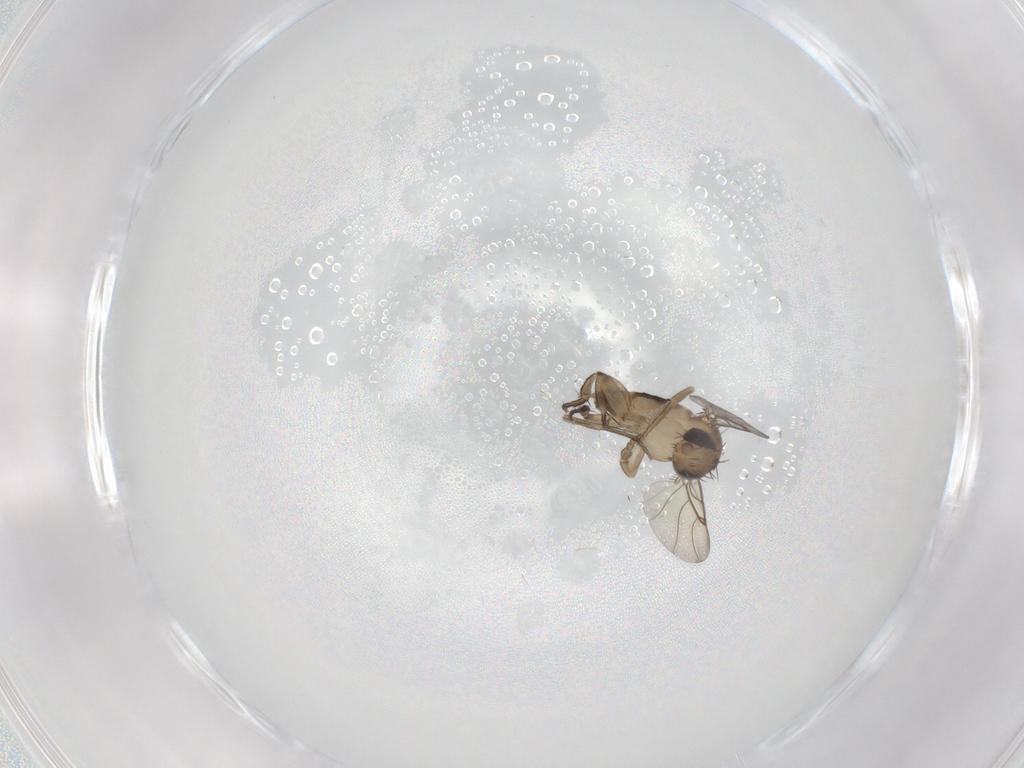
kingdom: Animalia
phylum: Arthropoda
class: Insecta
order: Diptera
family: Phoridae
